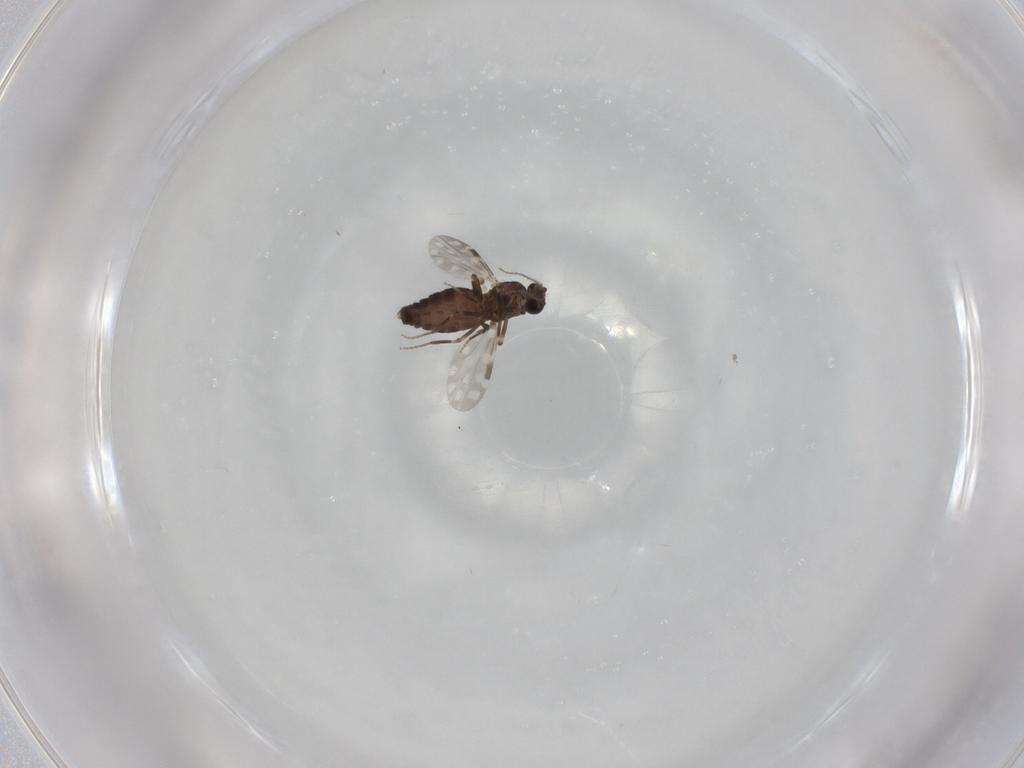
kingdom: Animalia
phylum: Arthropoda
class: Insecta
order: Diptera
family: Ceratopogonidae
